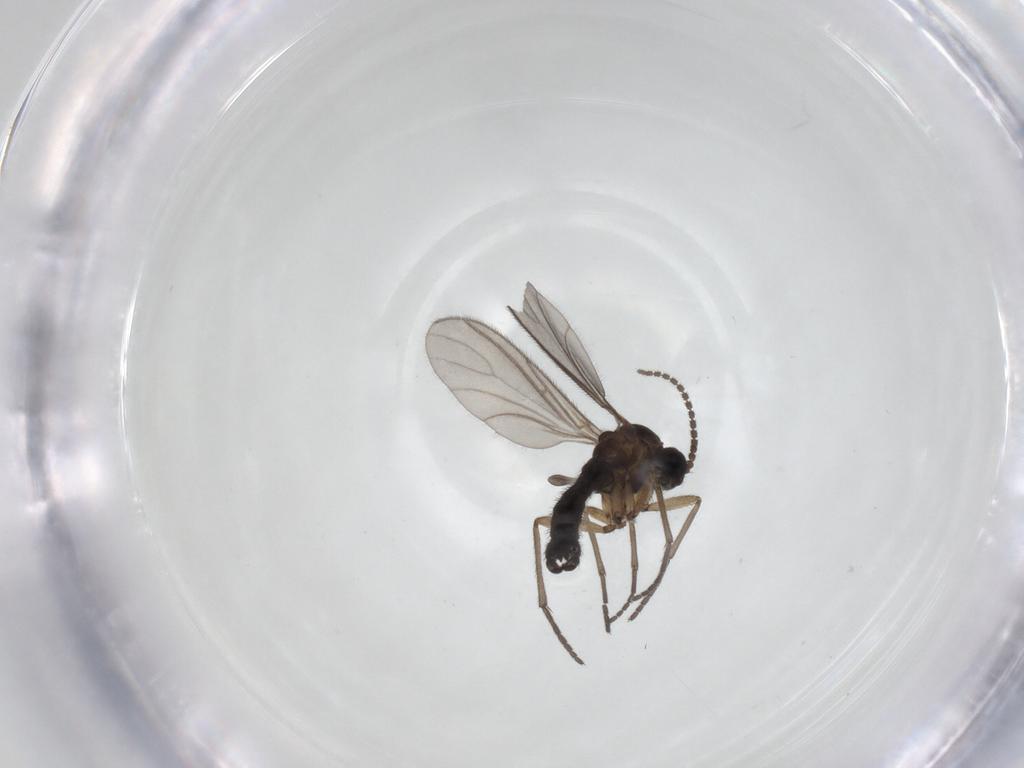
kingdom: Animalia
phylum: Arthropoda
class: Insecta
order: Diptera
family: Sciaridae
